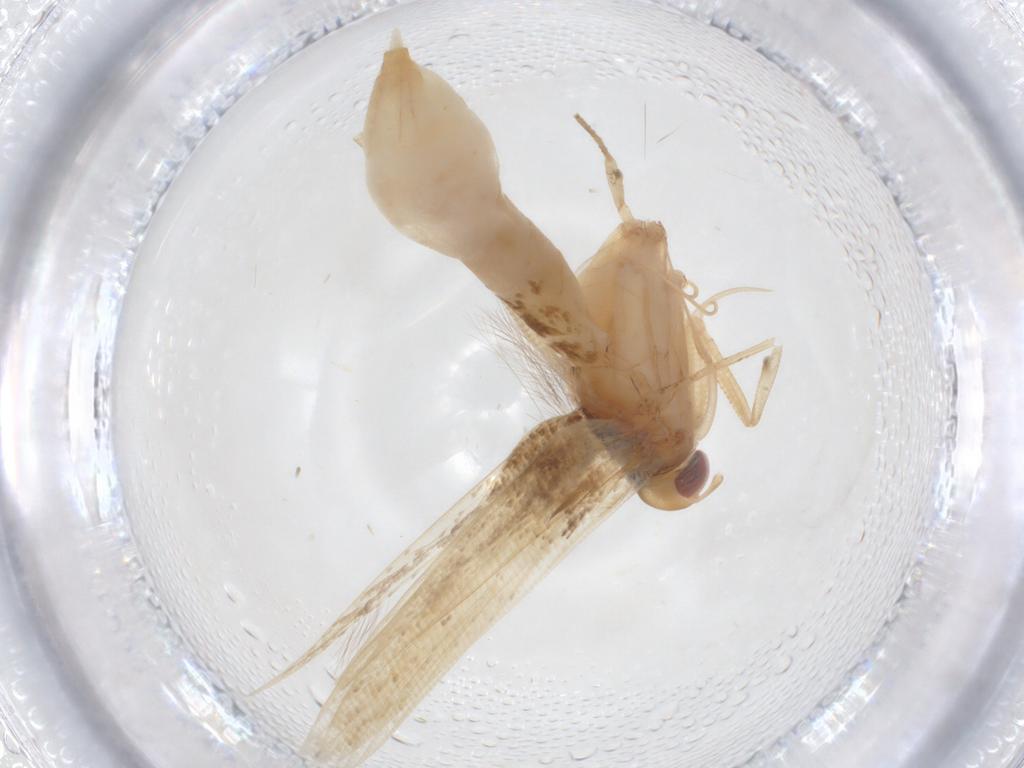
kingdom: Animalia
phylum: Arthropoda
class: Insecta
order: Lepidoptera
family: Cosmopterigidae
